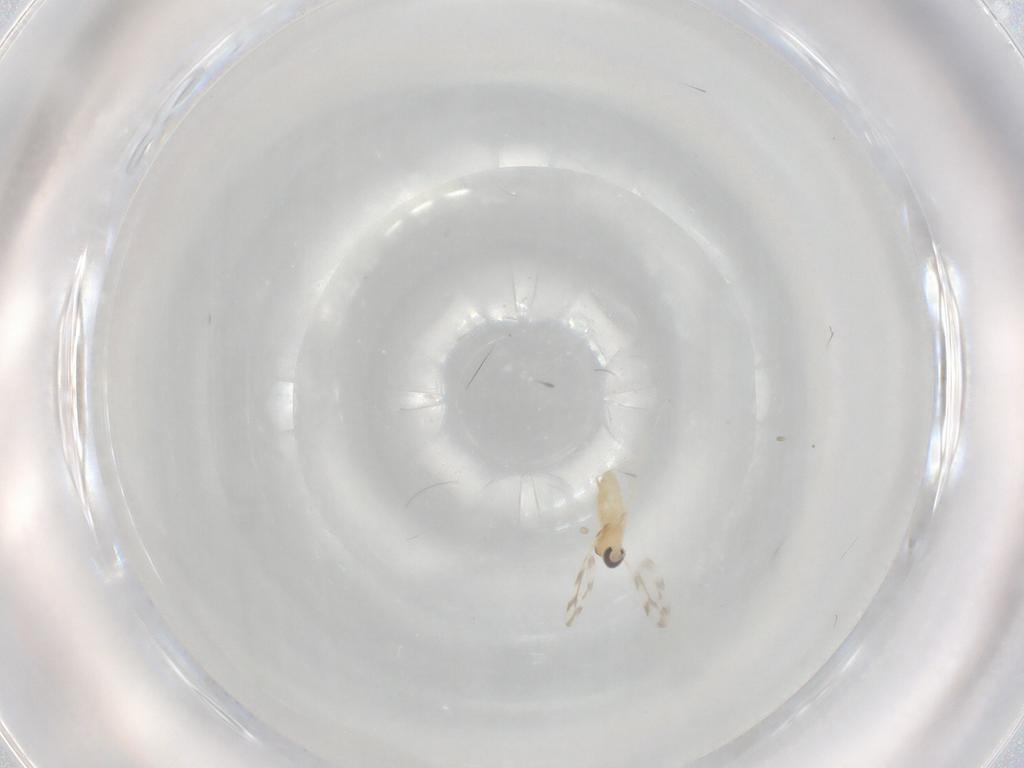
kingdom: Animalia
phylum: Arthropoda
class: Insecta
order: Diptera
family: Cecidomyiidae
